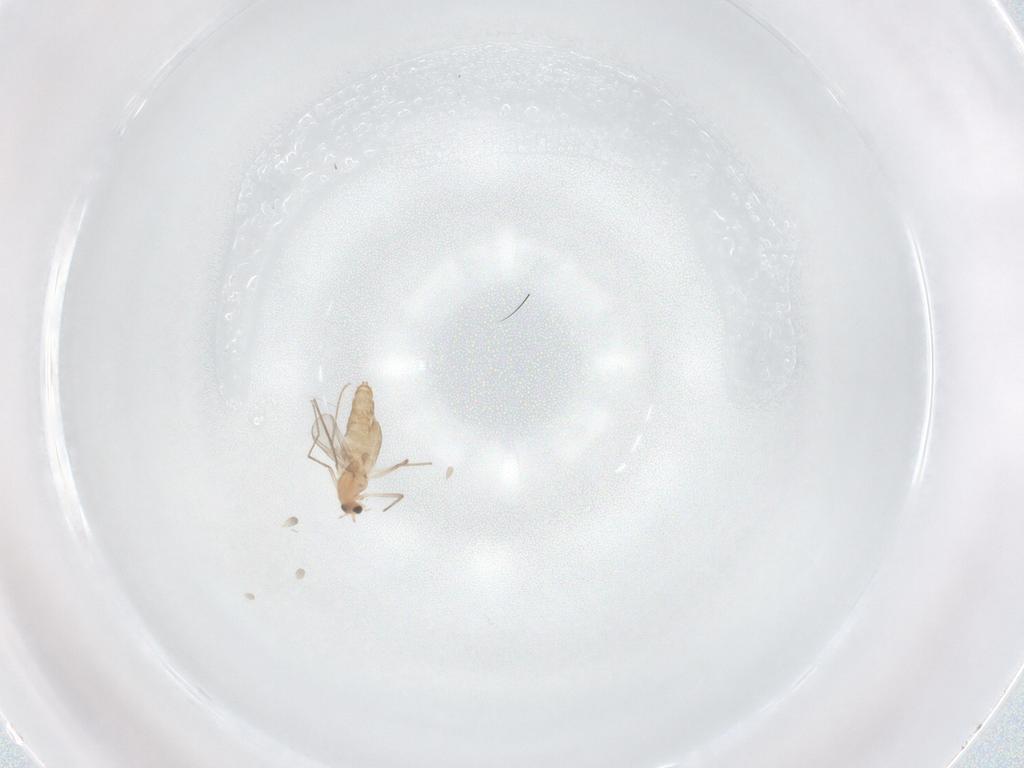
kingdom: Animalia
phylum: Arthropoda
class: Insecta
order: Diptera
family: Chironomidae
